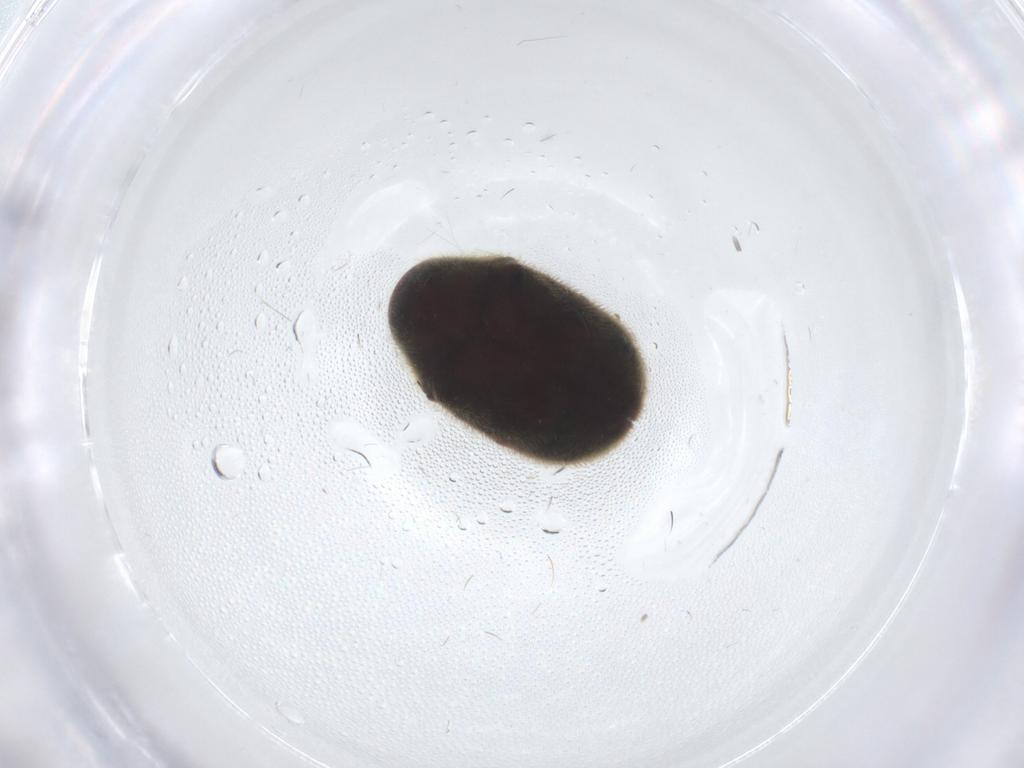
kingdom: Animalia
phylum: Arthropoda
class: Insecta
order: Coleoptera
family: Ptinidae
